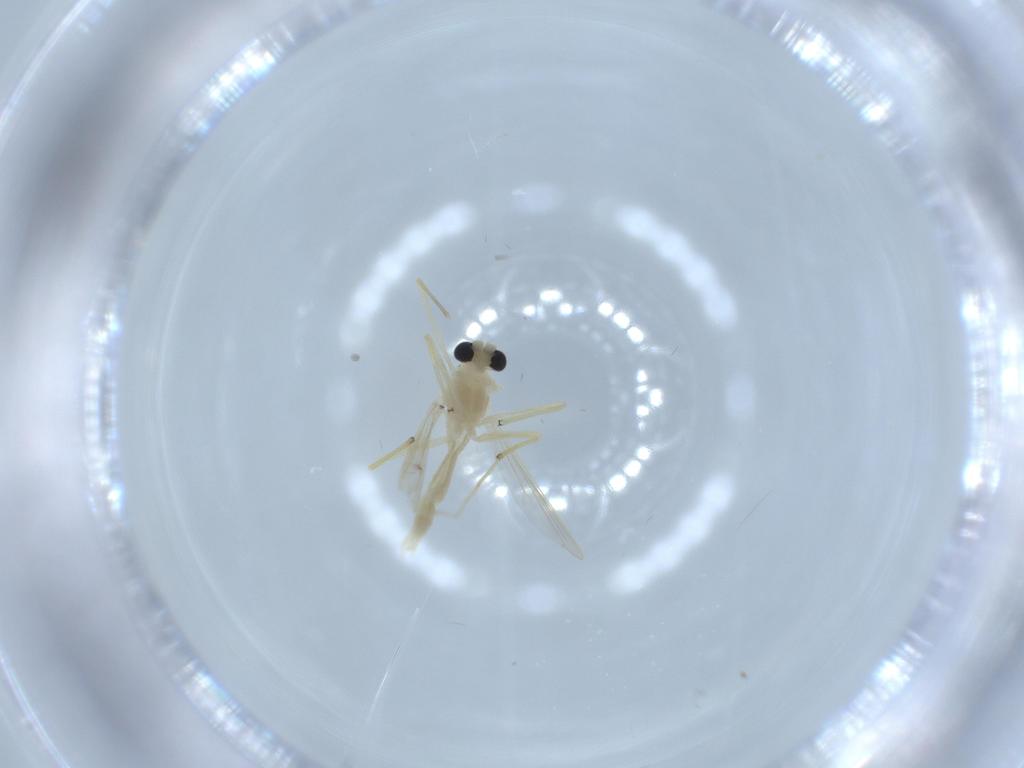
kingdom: Animalia
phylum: Arthropoda
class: Insecta
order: Diptera
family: Chironomidae
